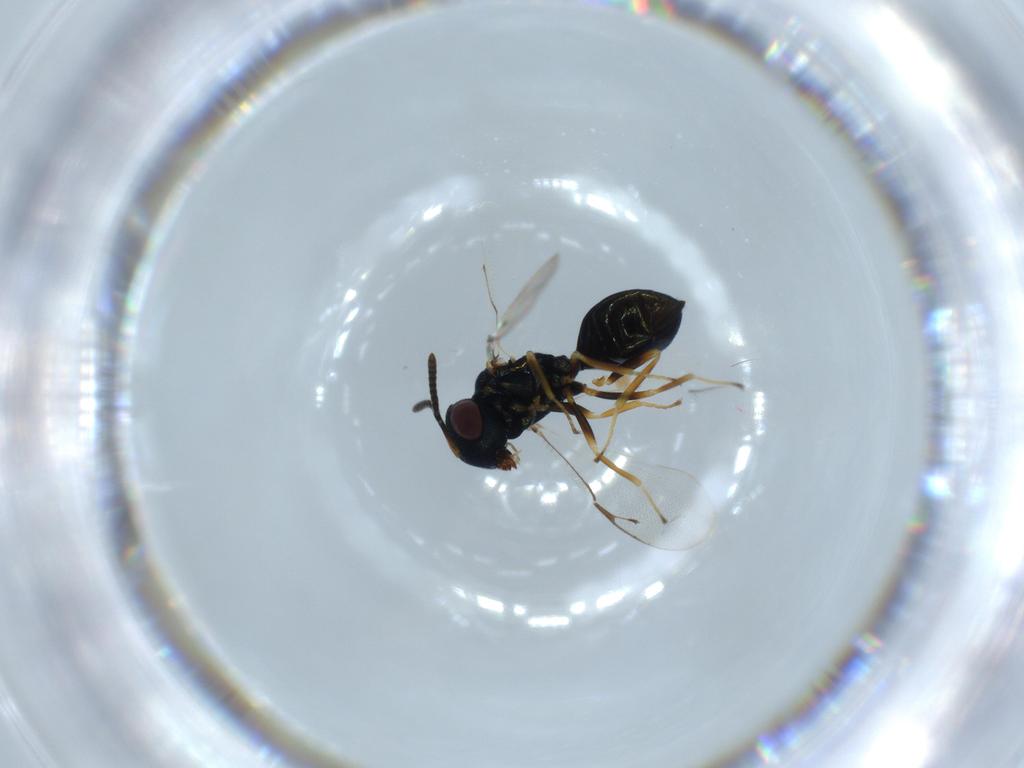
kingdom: Animalia
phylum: Arthropoda
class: Insecta
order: Hymenoptera
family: Pteromalidae
